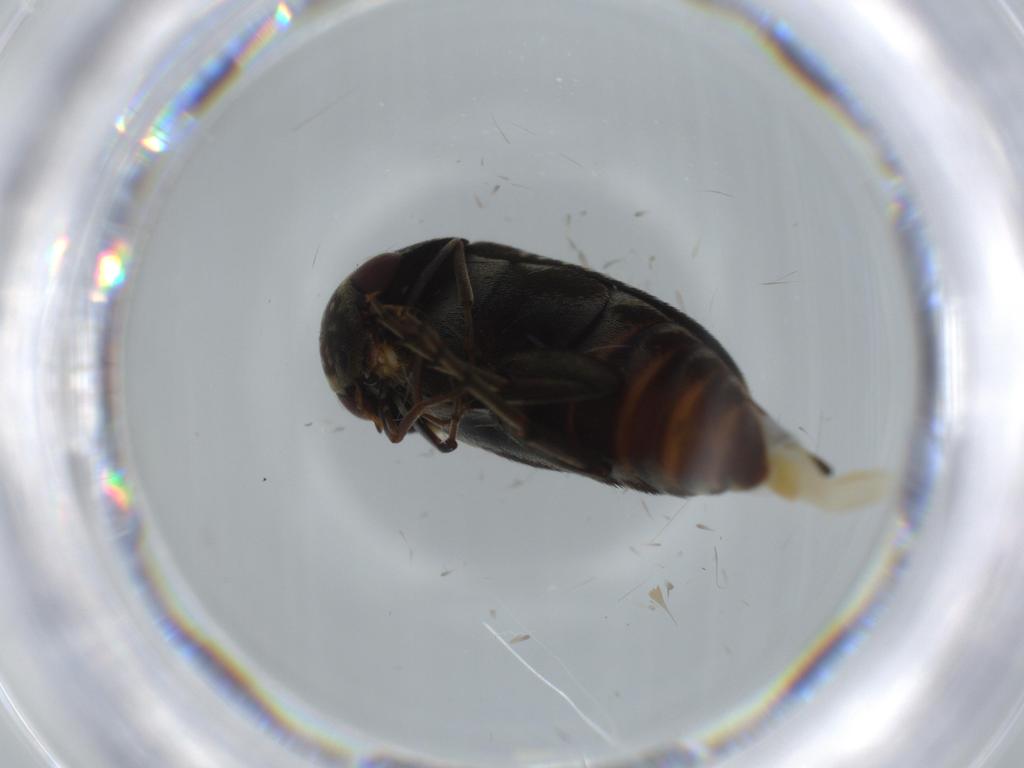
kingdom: Animalia
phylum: Arthropoda
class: Insecta
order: Coleoptera
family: Mordellidae
